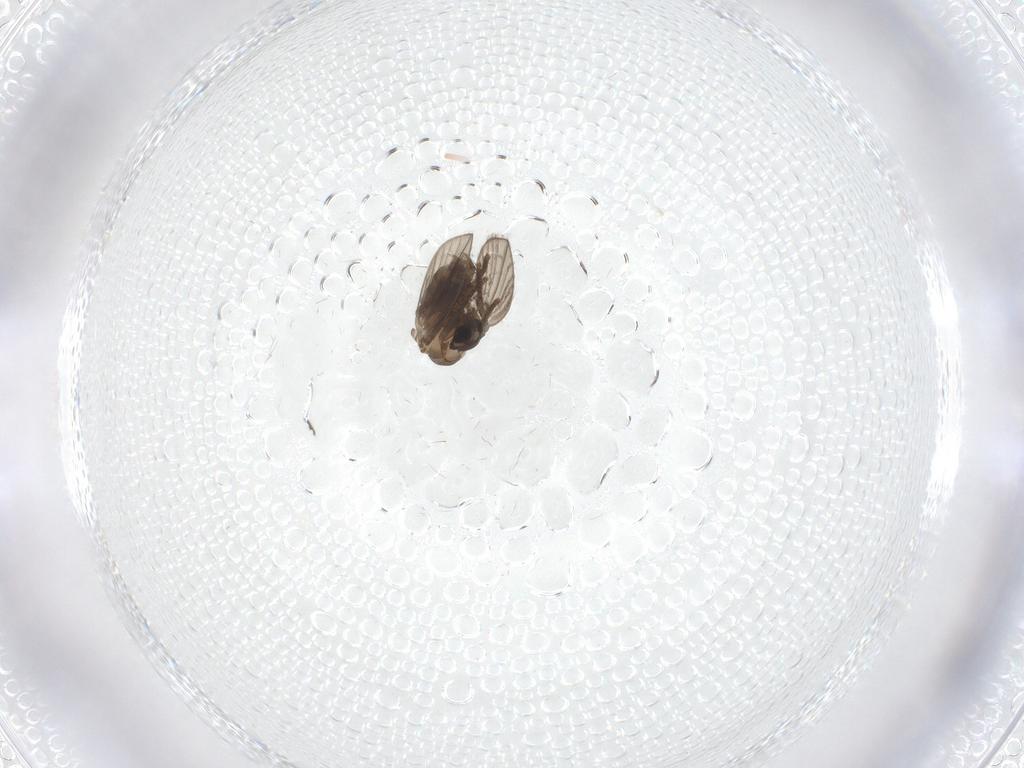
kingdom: Animalia
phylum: Arthropoda
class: Insecta
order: Diptera
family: Psychodidae
